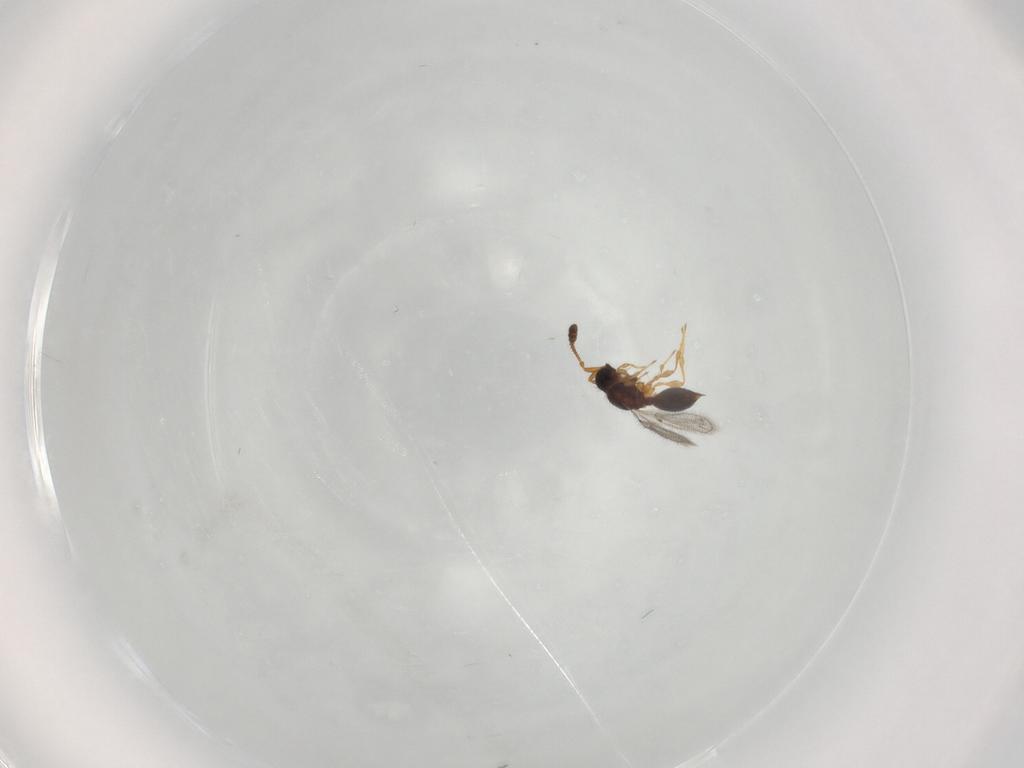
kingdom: Animalia
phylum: Arthropoda
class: Insecta
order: Hymenoptera
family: Diapriidae
